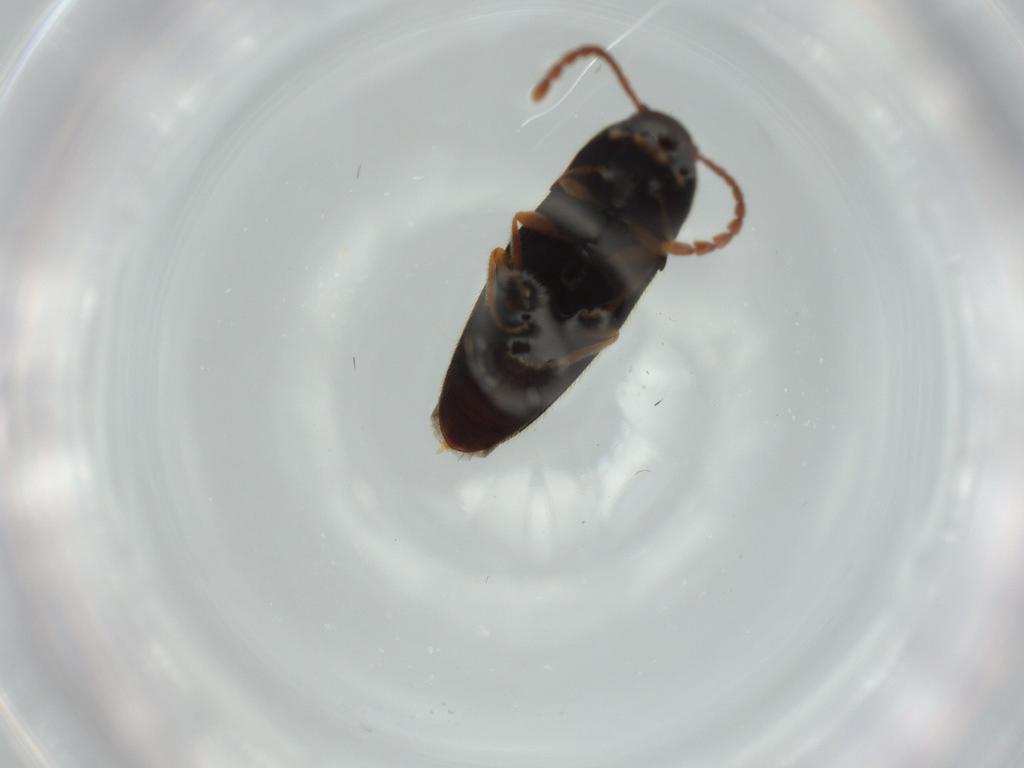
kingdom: Animalia
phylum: Arthropoda
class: Insecta
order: Coleoptera
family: Elateridae
